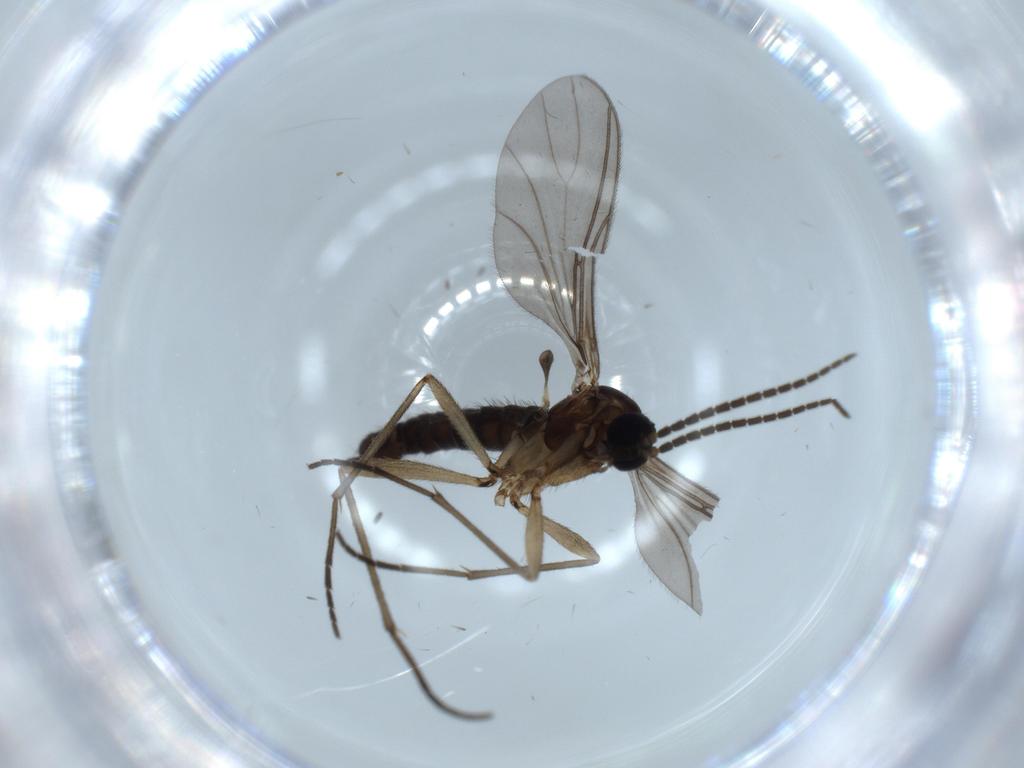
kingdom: Animalia
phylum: Arthropoda
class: Insecta
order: Diptera
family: Sciaridae
